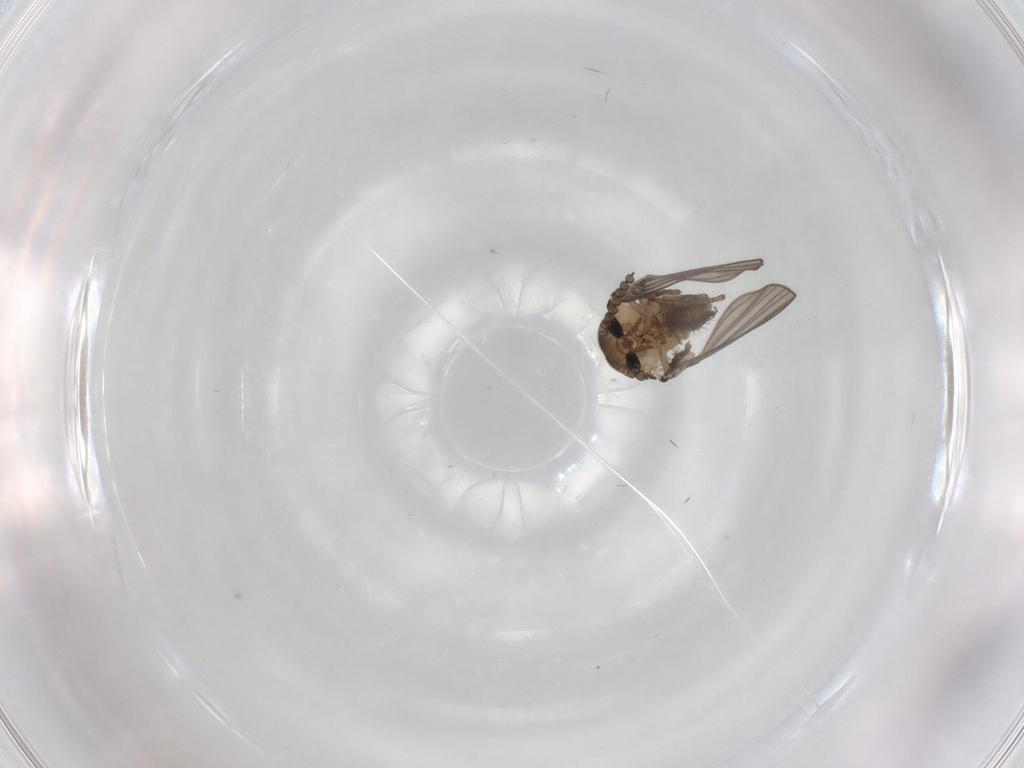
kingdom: Animalia
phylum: Arthropoda
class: Insecta
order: Diptera
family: Psychodidae
